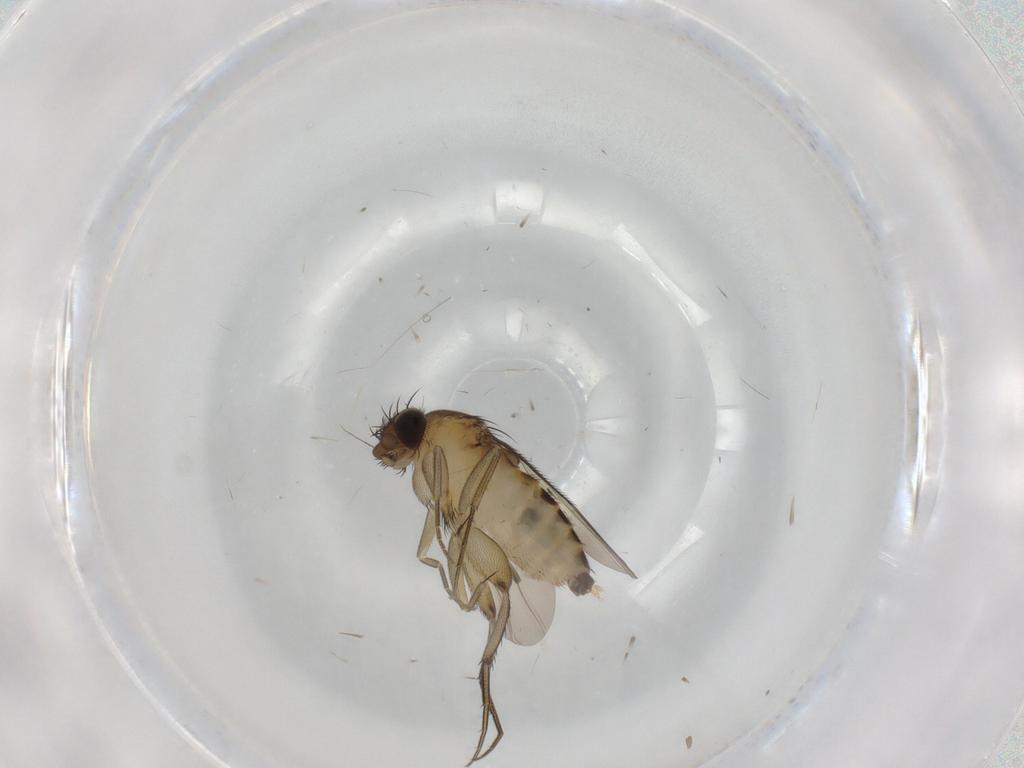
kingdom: Animalia
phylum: Arthropoda
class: Insecta
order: Diptera
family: Phoridae
